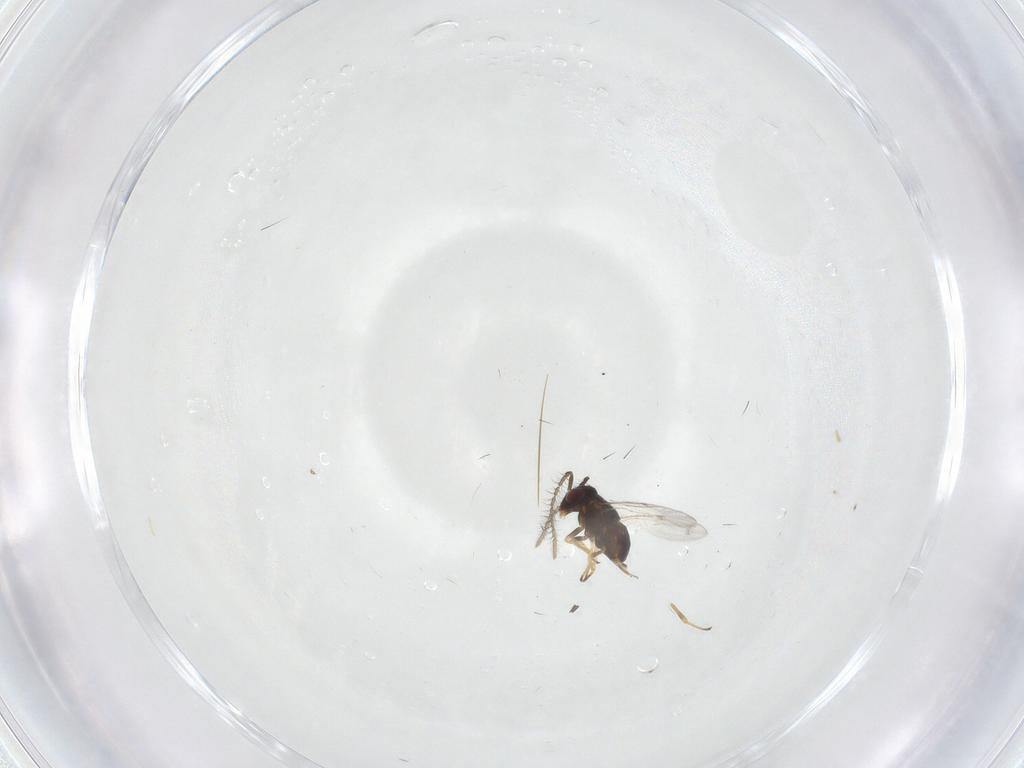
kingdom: Animalia
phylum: Arthropoda
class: Insecta
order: Hymenoptera
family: Encyrtidae
